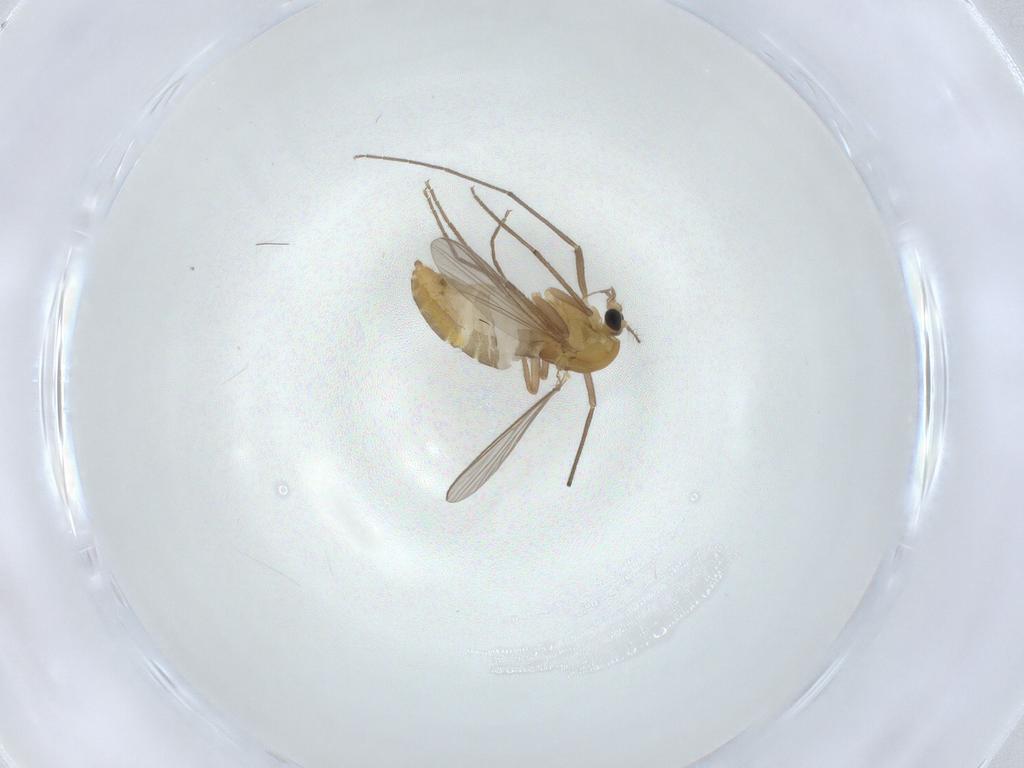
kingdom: Animalia
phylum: Arthropoda
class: Insecta
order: Diptera
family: Chironomidae
